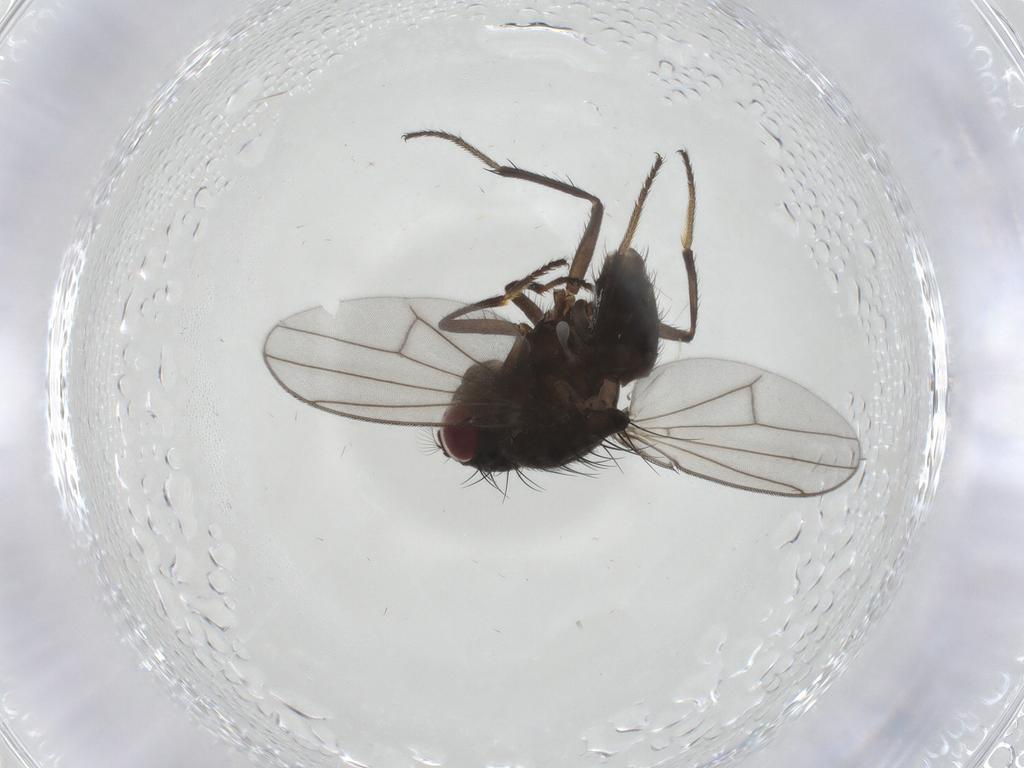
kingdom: Animalia
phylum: Arthropoda
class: Insecta
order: Diptera
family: Ephydridae
